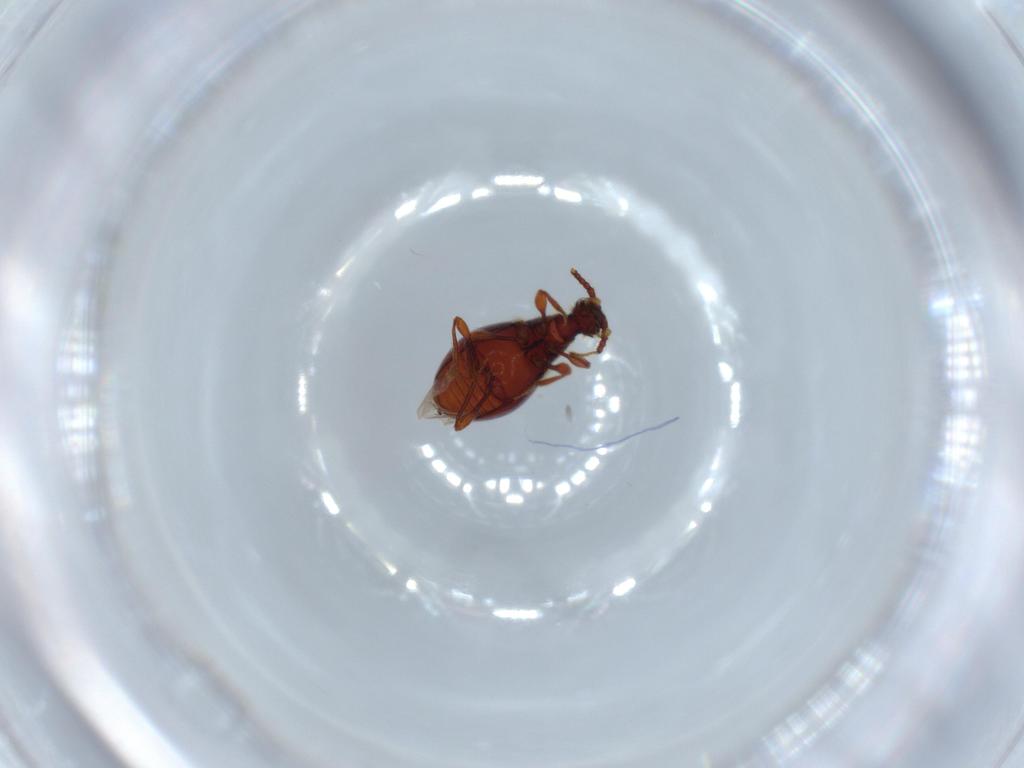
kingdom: Animalia
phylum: Arthropoda
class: Insecta
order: Coleoptera
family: Staphylinidae
